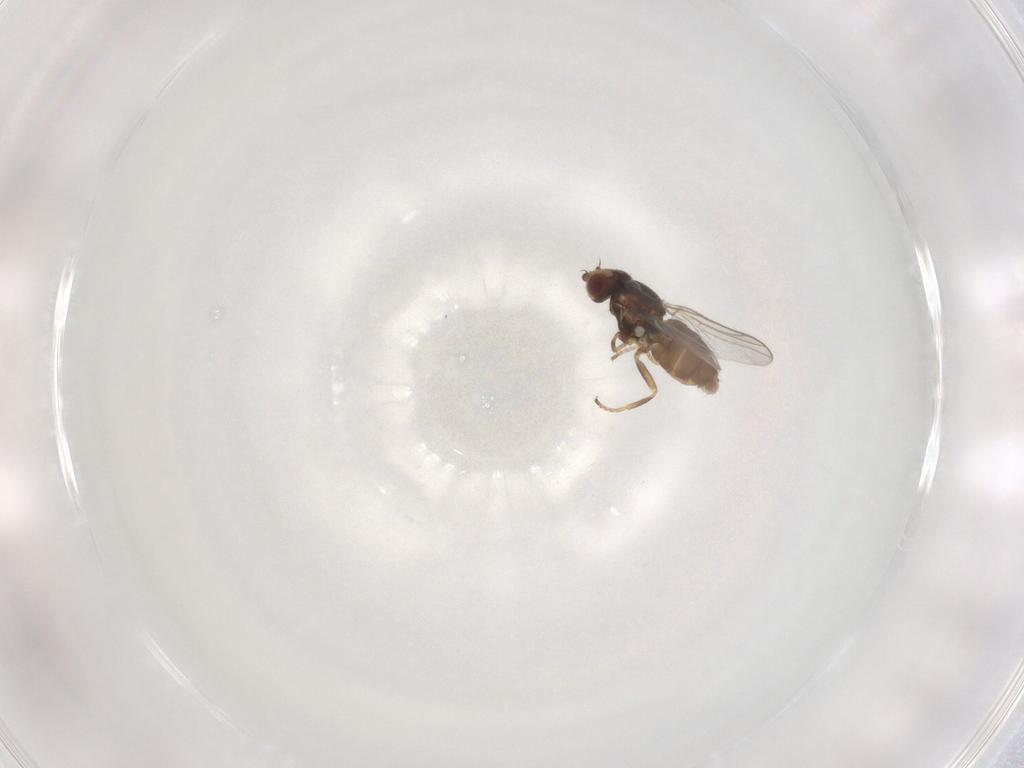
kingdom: Animalia
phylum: Arthropoda
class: Insecta
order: Diptera
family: Chloropidae
